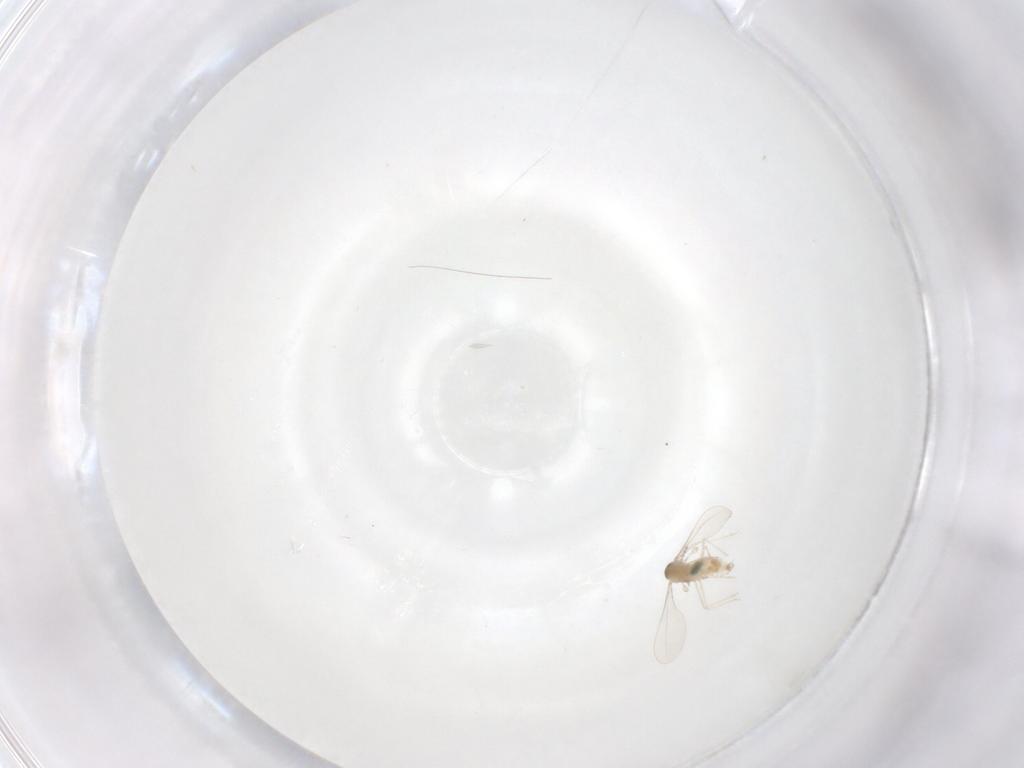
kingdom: Animalia
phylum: Arthropoda
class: Insecta
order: Diptera
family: Cecidomyiidae
